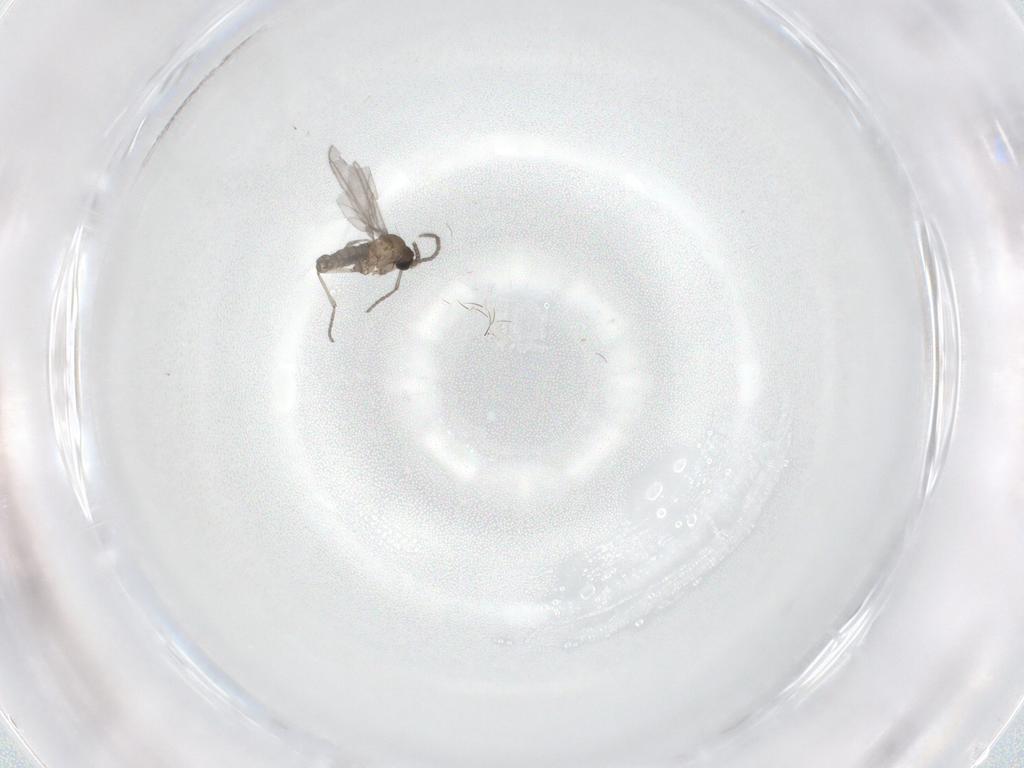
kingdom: Animalia
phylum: Arthropoda
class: Insecta
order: Diptera
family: Sciaridae
